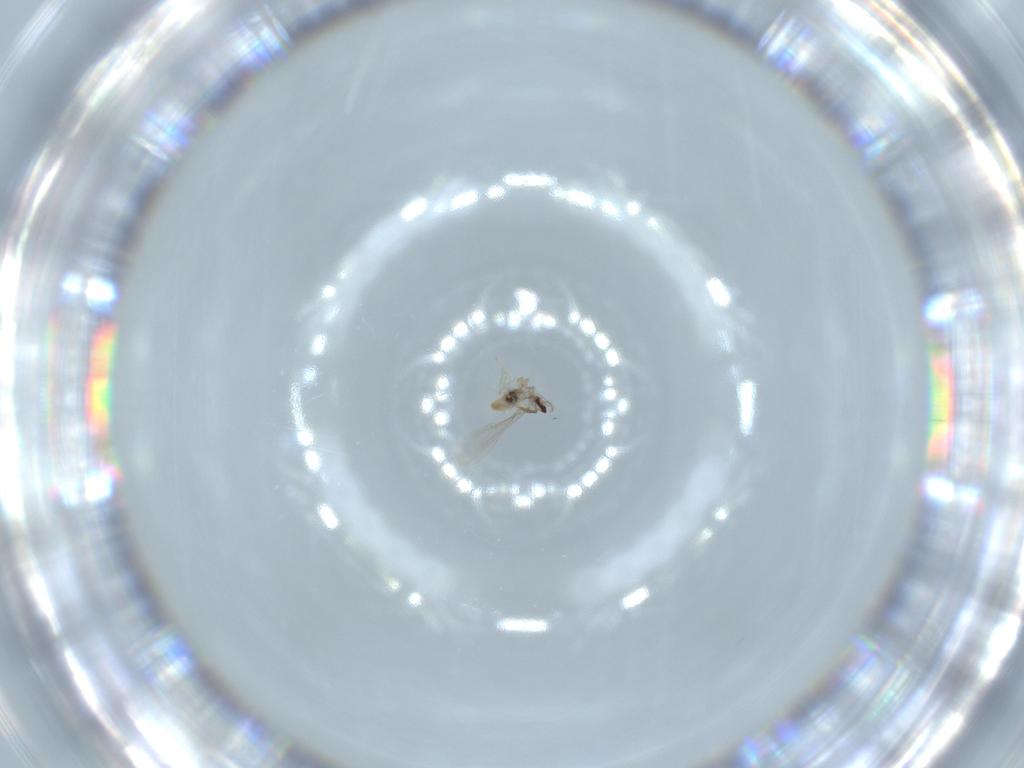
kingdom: Animalia
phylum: Arthropoda
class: Insecta
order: Diptera
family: Cecidomyiidae
